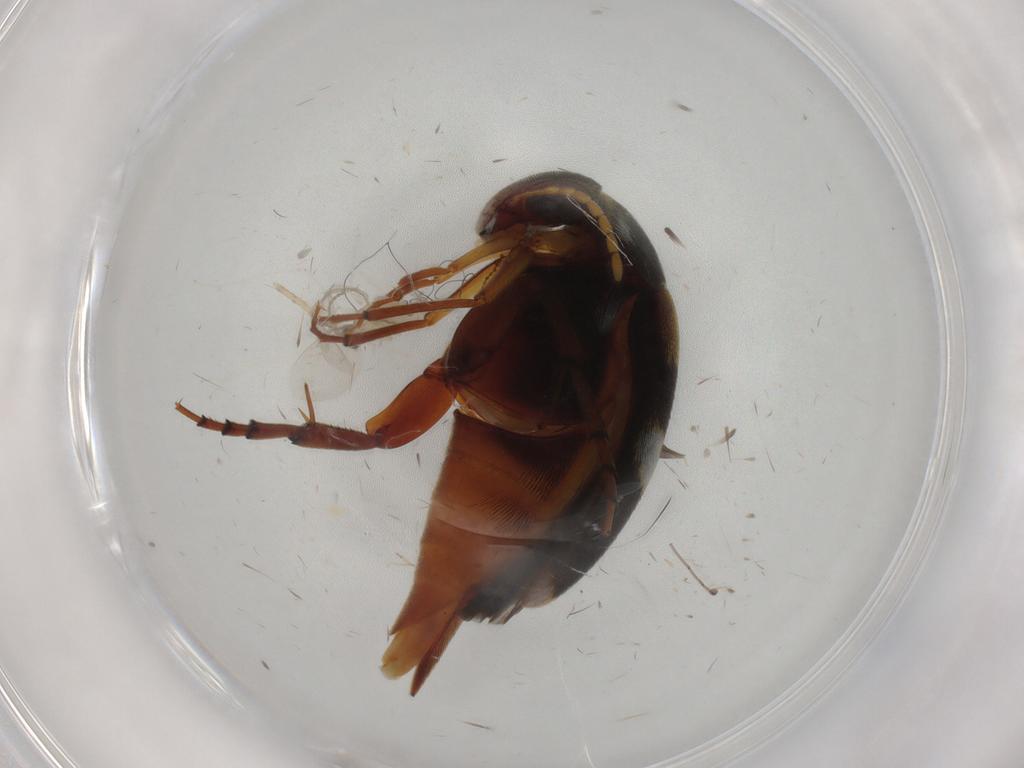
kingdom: Animalia
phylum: Arthropoda
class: Insecta
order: Coleoptera
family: Mordellidae
